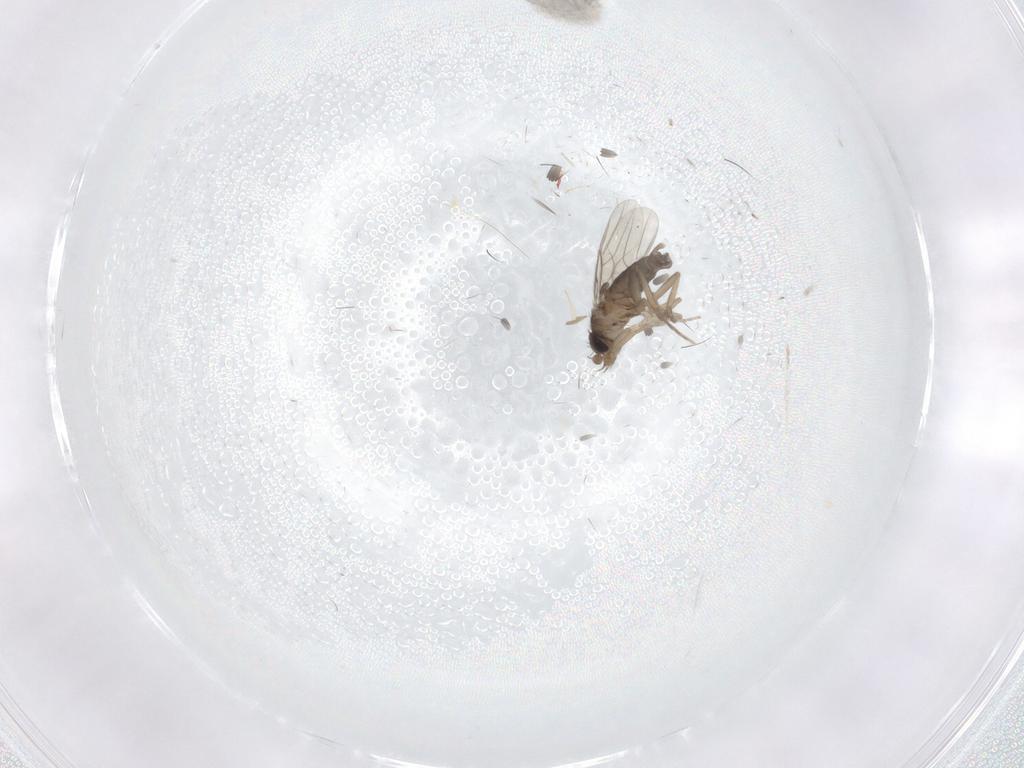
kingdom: Animalia
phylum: Arthropoda
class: Insecta
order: Diptera
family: Phoridae
